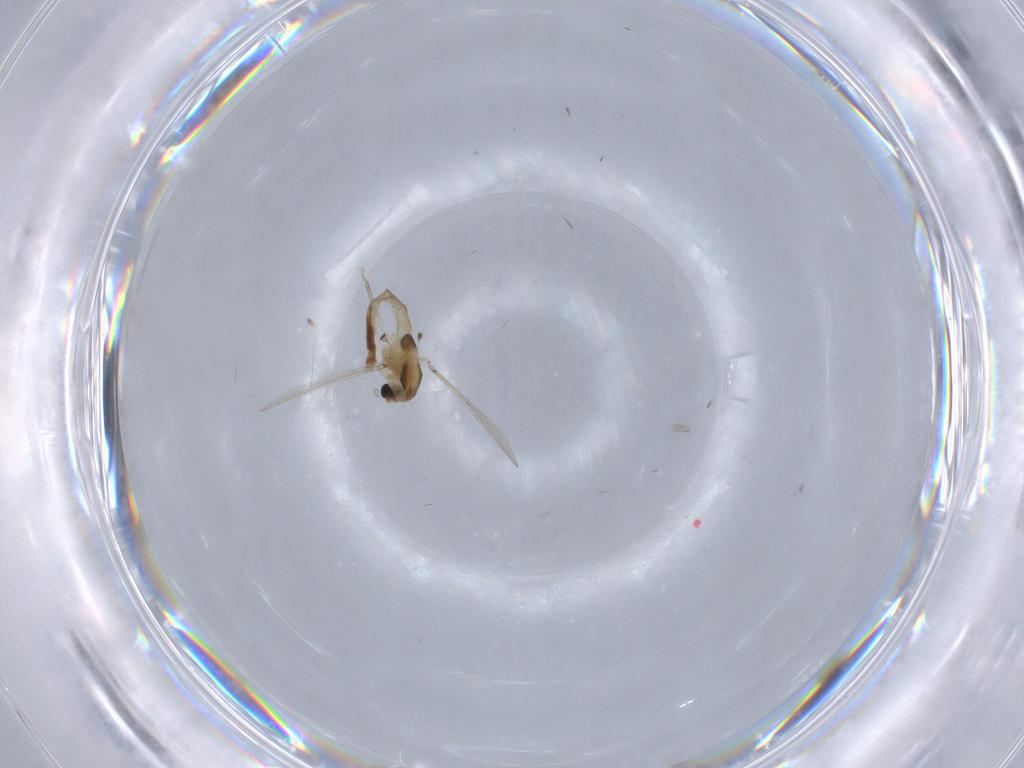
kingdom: Animalia
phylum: Arthropoda
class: Insecta
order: Diptera
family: Chironomidae
